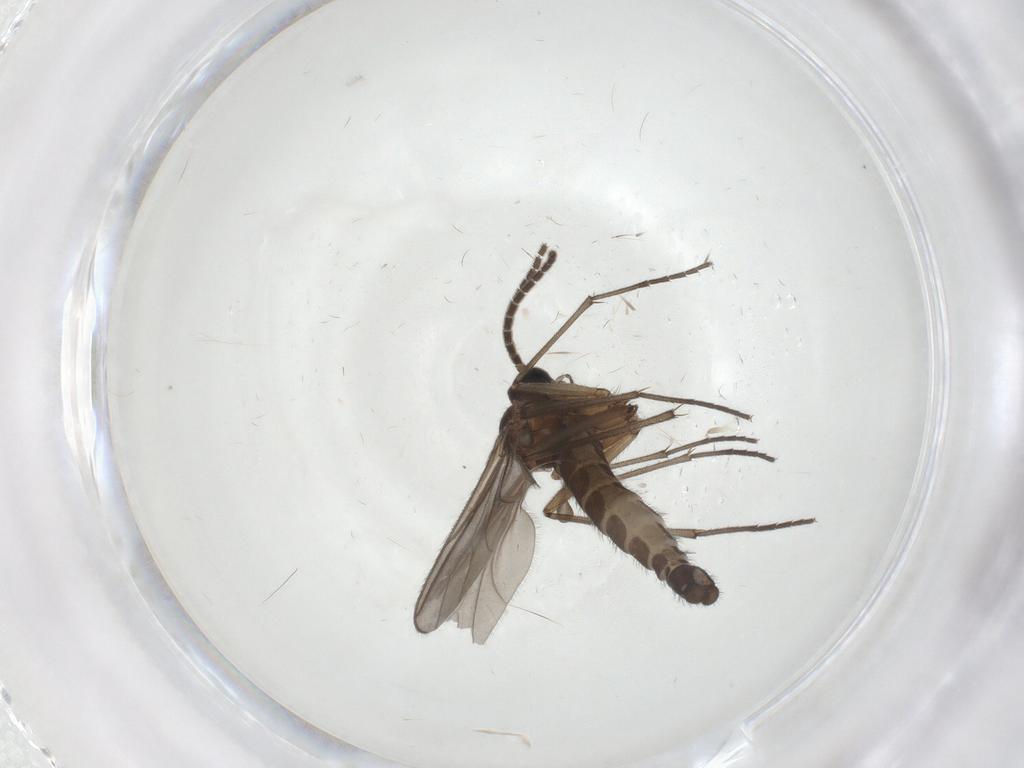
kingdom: Animalia
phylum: Arthropoda
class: Insecta
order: Diptera
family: Sciaridae
